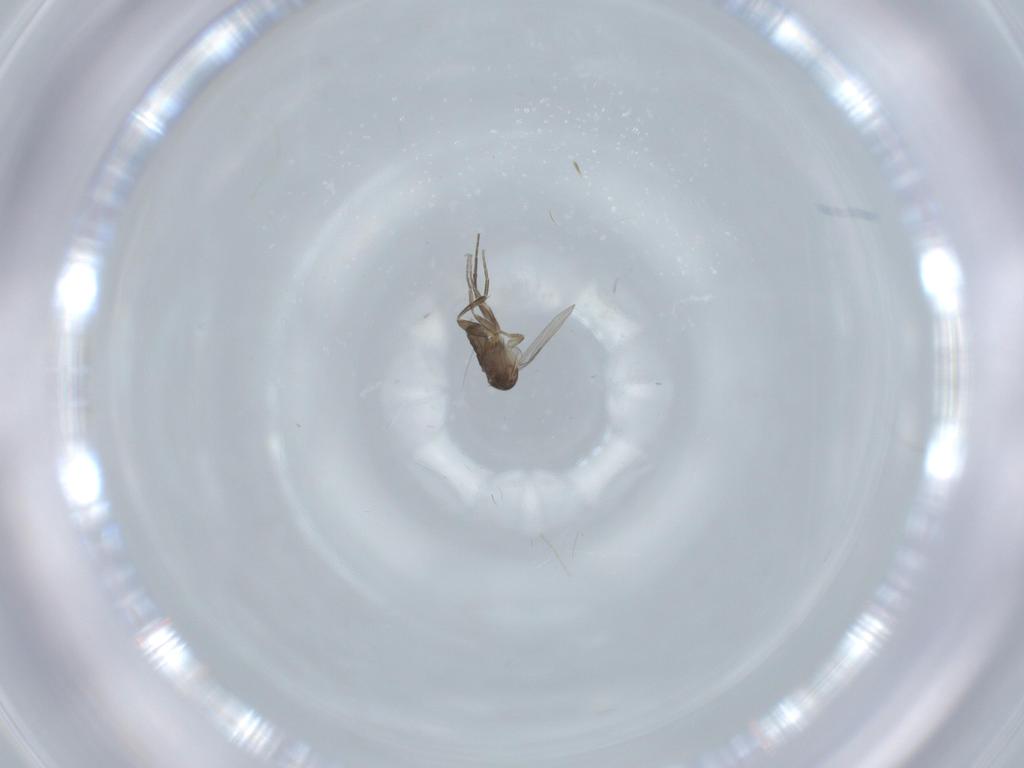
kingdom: Animalia
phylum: Arthropoda
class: Insecta
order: Diptera
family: Phoridae
